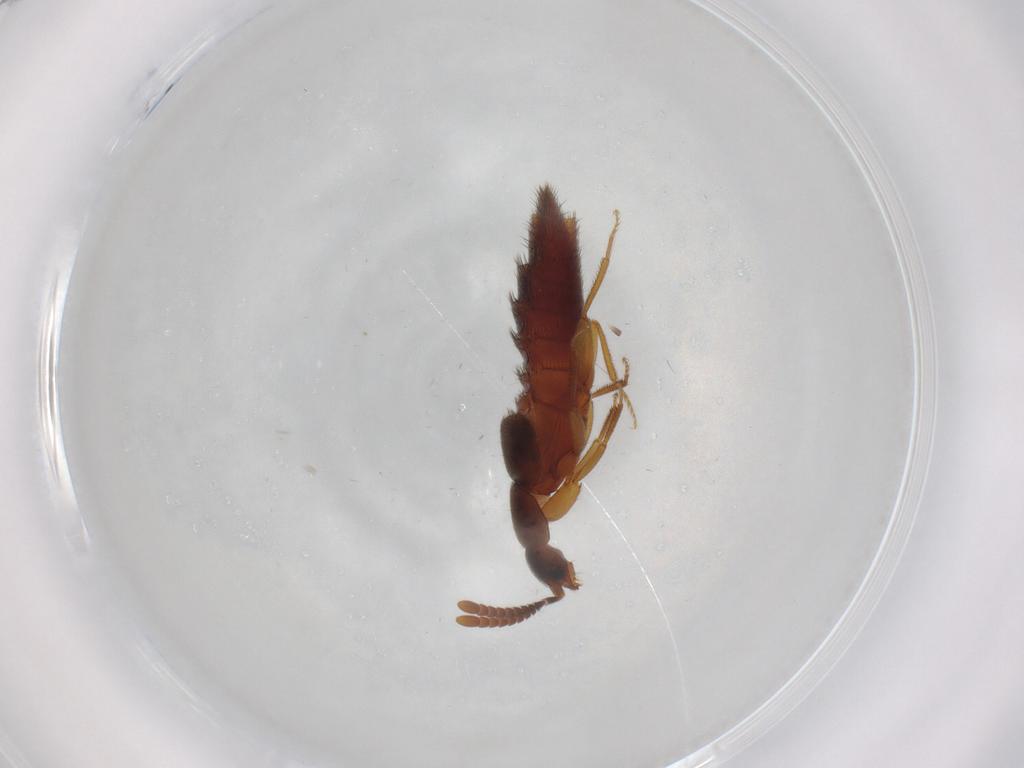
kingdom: Animalia
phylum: Arthropoda
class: Insecta
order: Coleoptera
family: Staphylinidae
